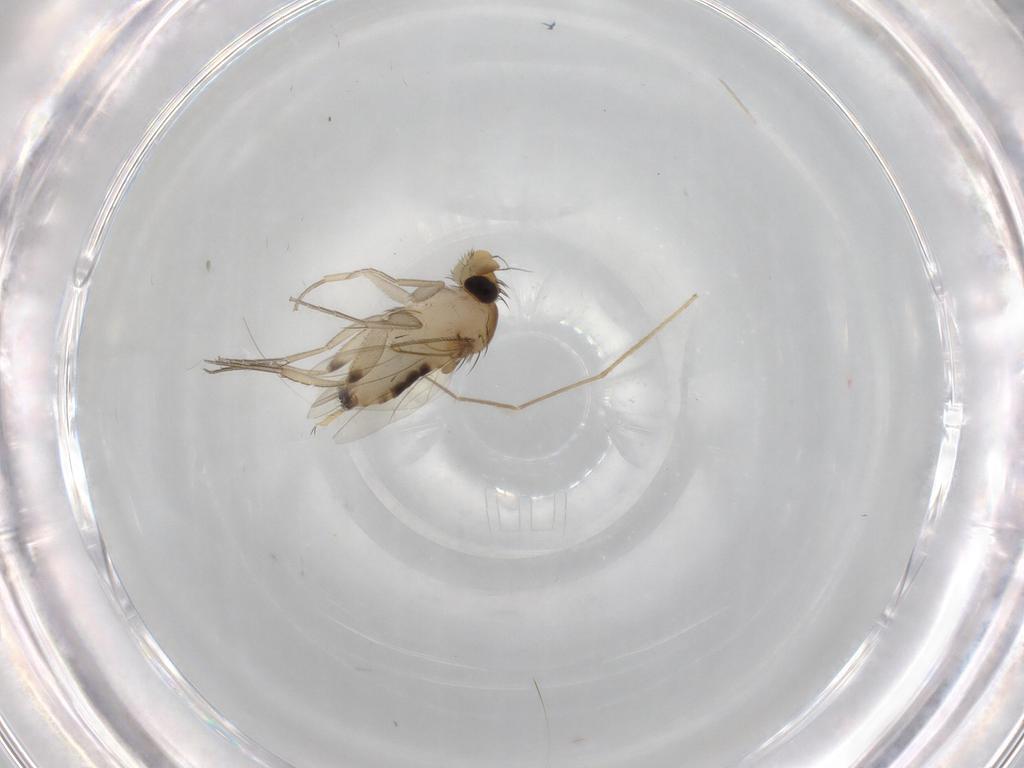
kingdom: Animalia
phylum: Arthropoda
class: Insecta
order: Diptera
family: Phoridae
